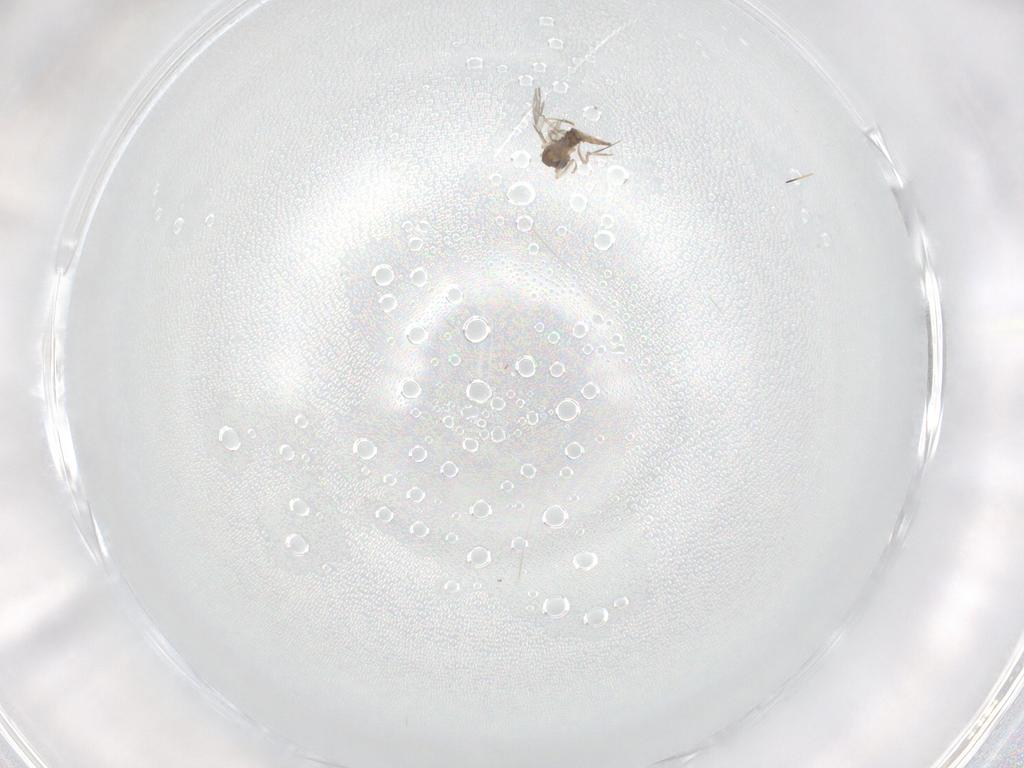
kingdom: Animalia
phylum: Arthropoda
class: Insecta
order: Diptera
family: Cecidomyiidae
